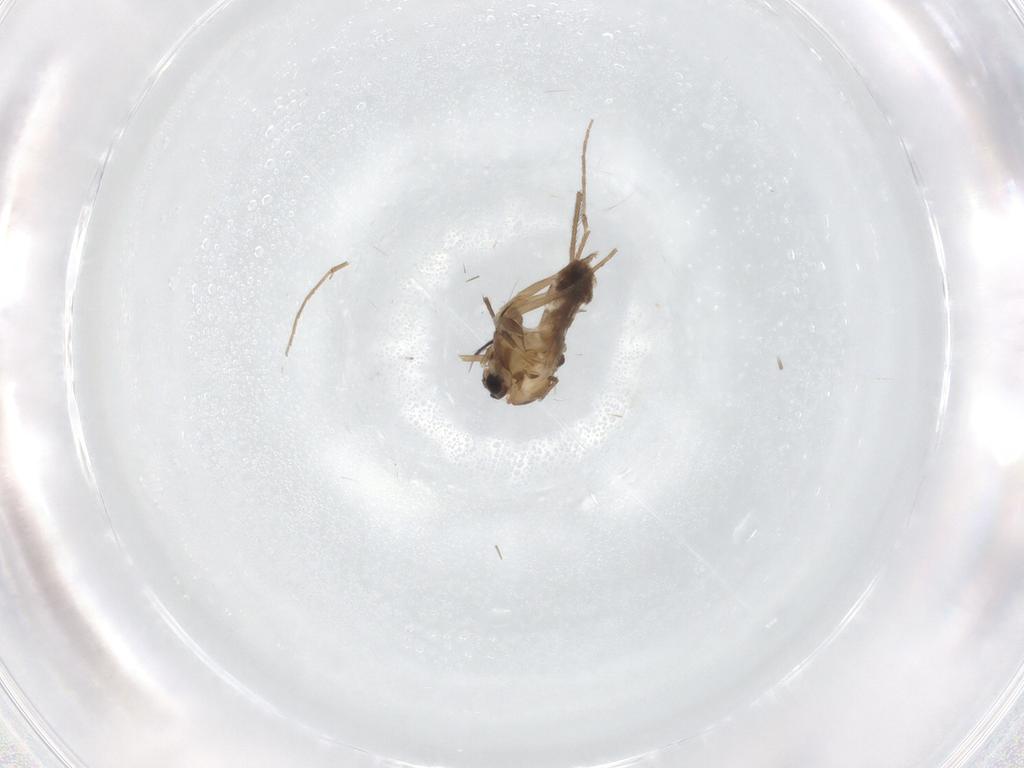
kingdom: Animalia
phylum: Arthropoda
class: Insecta
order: Diptera
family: Chironomidae
